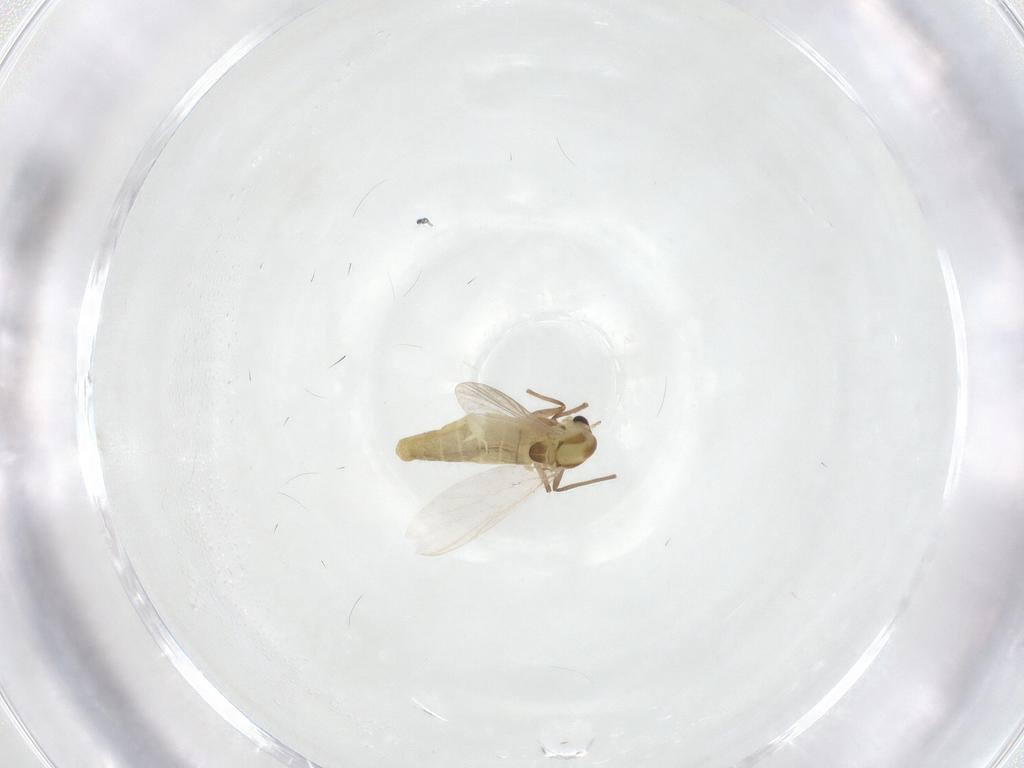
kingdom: Animalia
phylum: Arthropoda
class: Insecta
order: Diptera
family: Chironomidae
